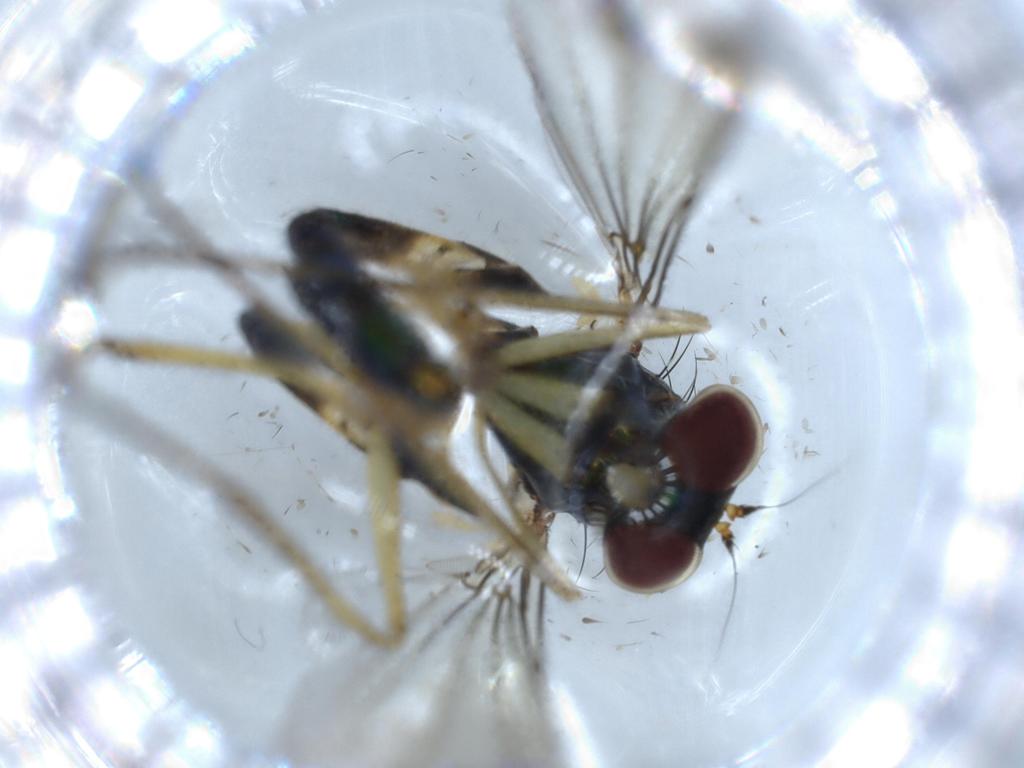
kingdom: Animalia
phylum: Arthropoda
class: Insecta
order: Diptera
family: Dolichopodidae
